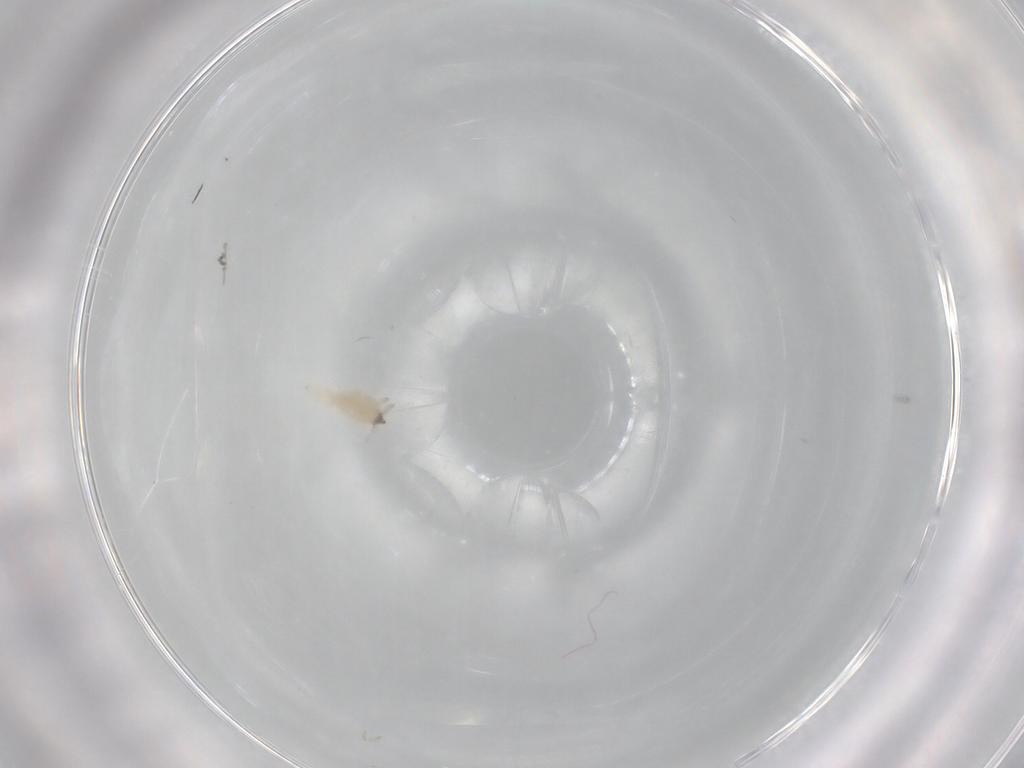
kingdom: Animalia
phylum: Arthropoda
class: Insecta
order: Neuroptera
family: Coniopterygidae
